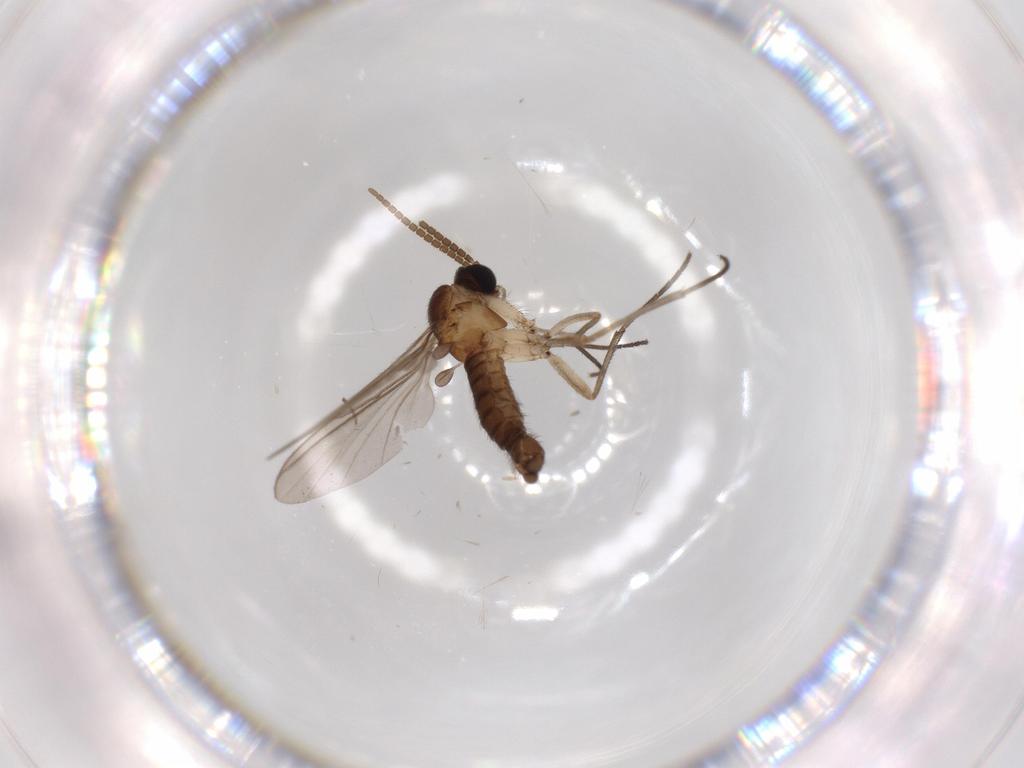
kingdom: Animalia
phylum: Arthropoda
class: Insecta
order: Diptera
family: Sciaridae
